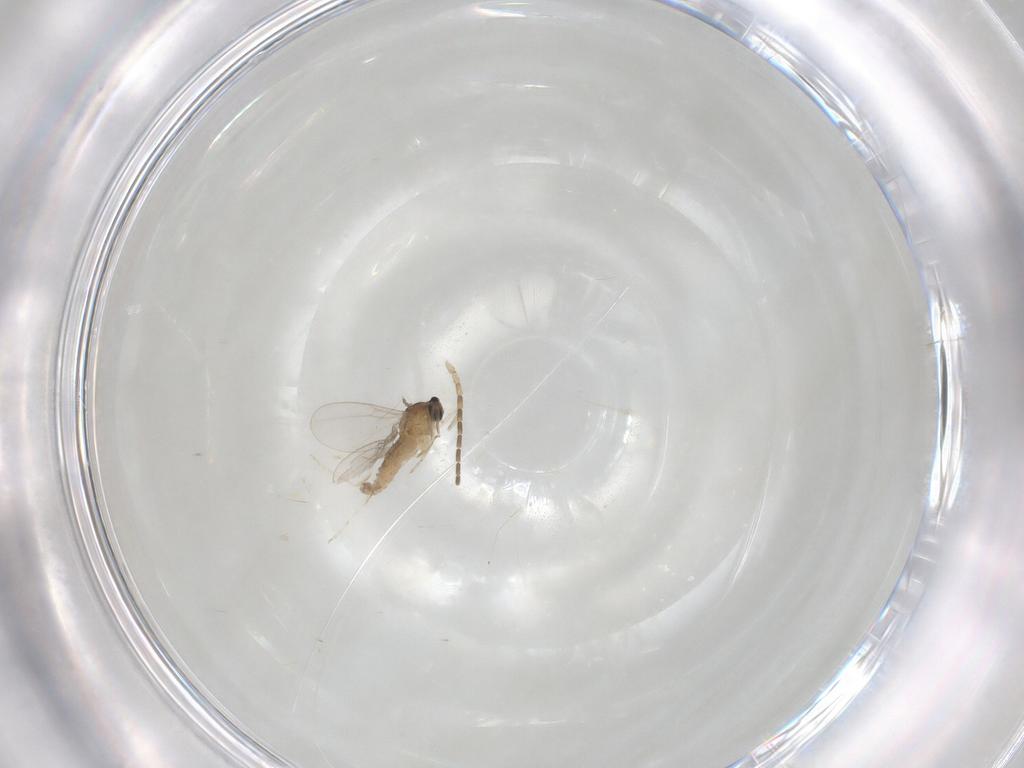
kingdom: Animalia
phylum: Arthropoda
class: Insecta
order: Diptera
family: Cecidomyiidae
